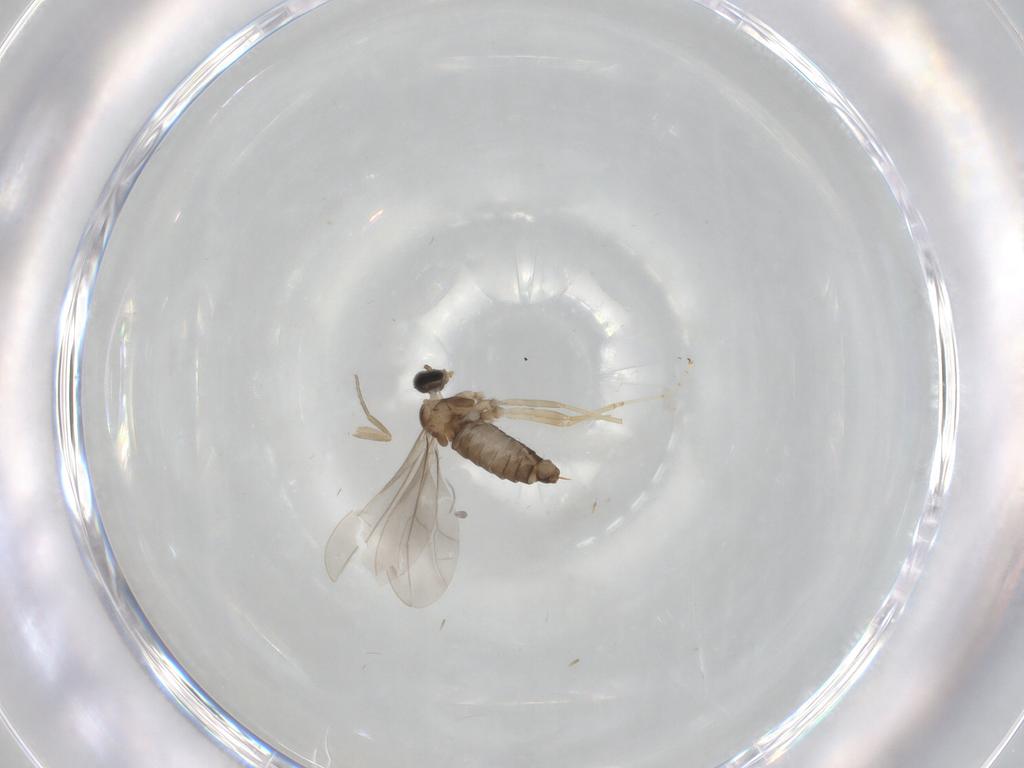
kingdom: Animalia
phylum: Arthropoda
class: Insecta
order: Diptera
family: Cecidomyiidae
